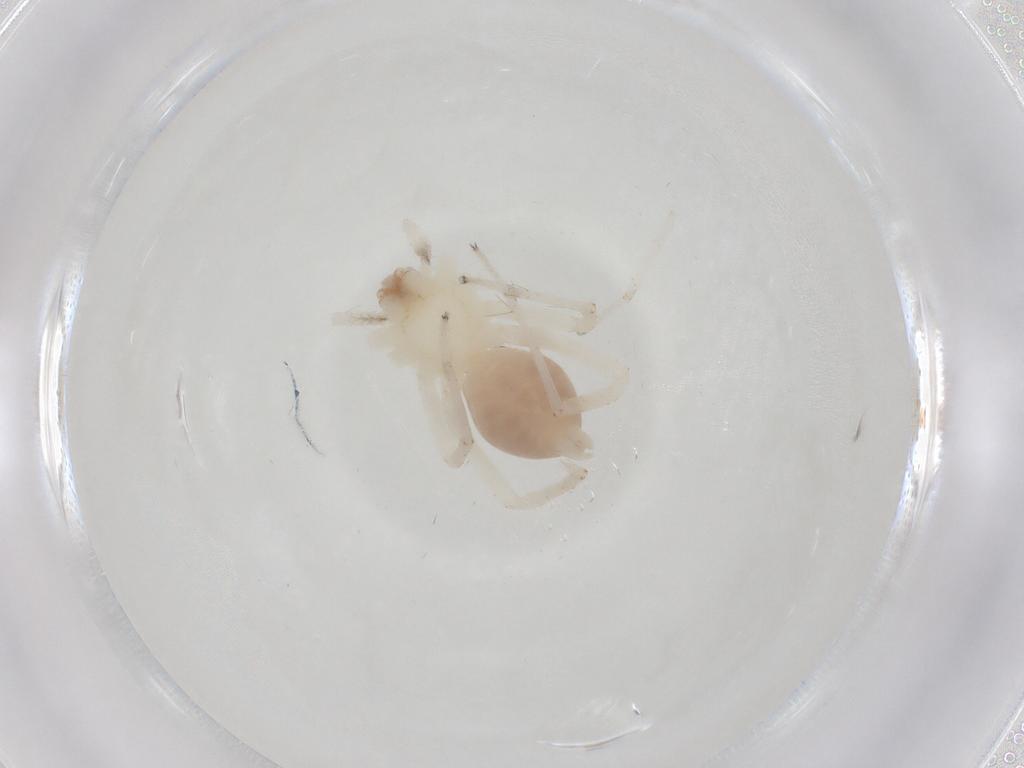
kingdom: Animalia
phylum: Arthropoda
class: Arachnida
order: Araneae
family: Anyphaenidae
